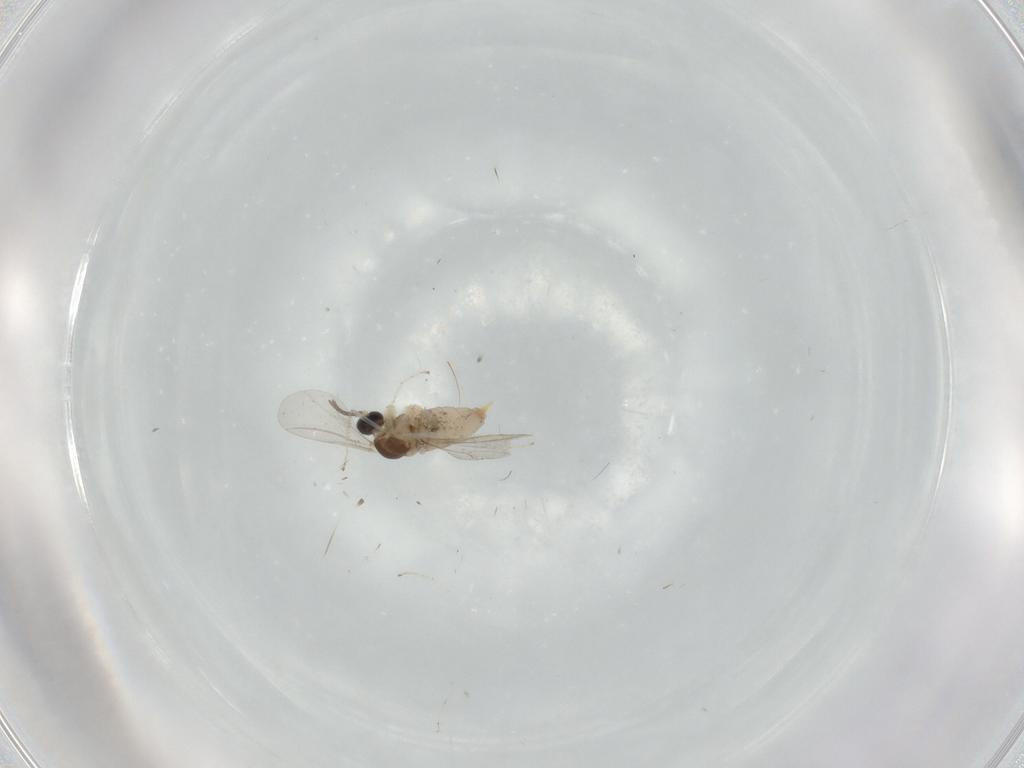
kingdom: Animalia
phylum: Arthropoda
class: Insecta
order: Diptera
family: Cecidomyiidae
